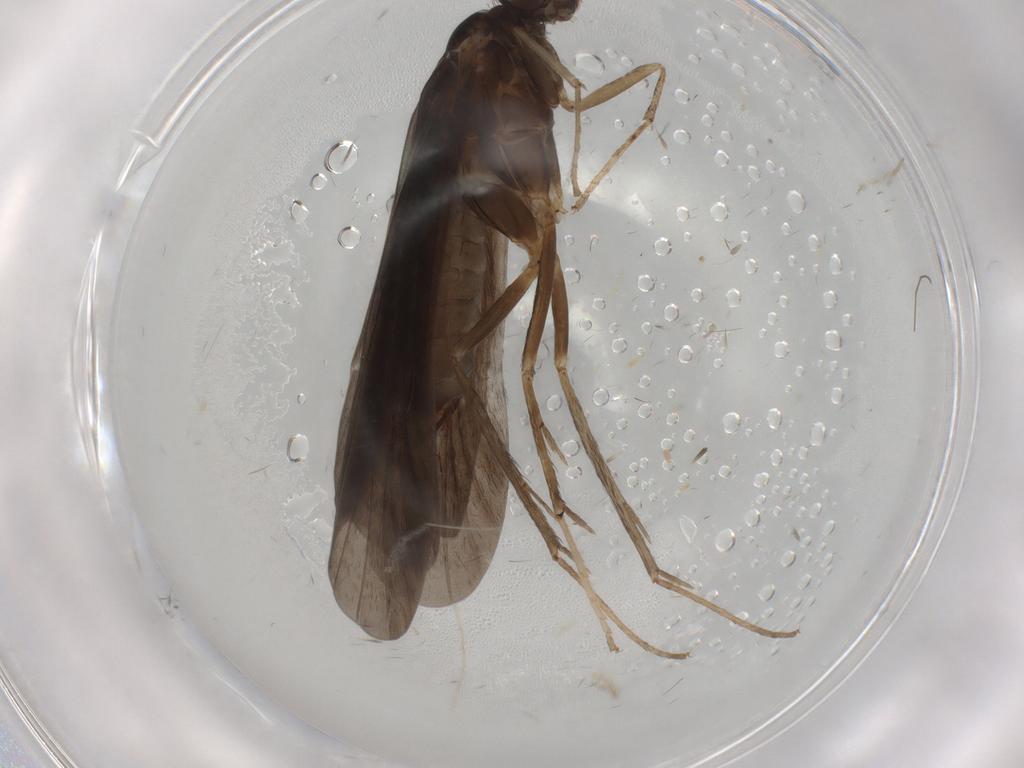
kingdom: Animalia
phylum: Arthropoda
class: Insecta
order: Trichoptera
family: Hydropsychidae
